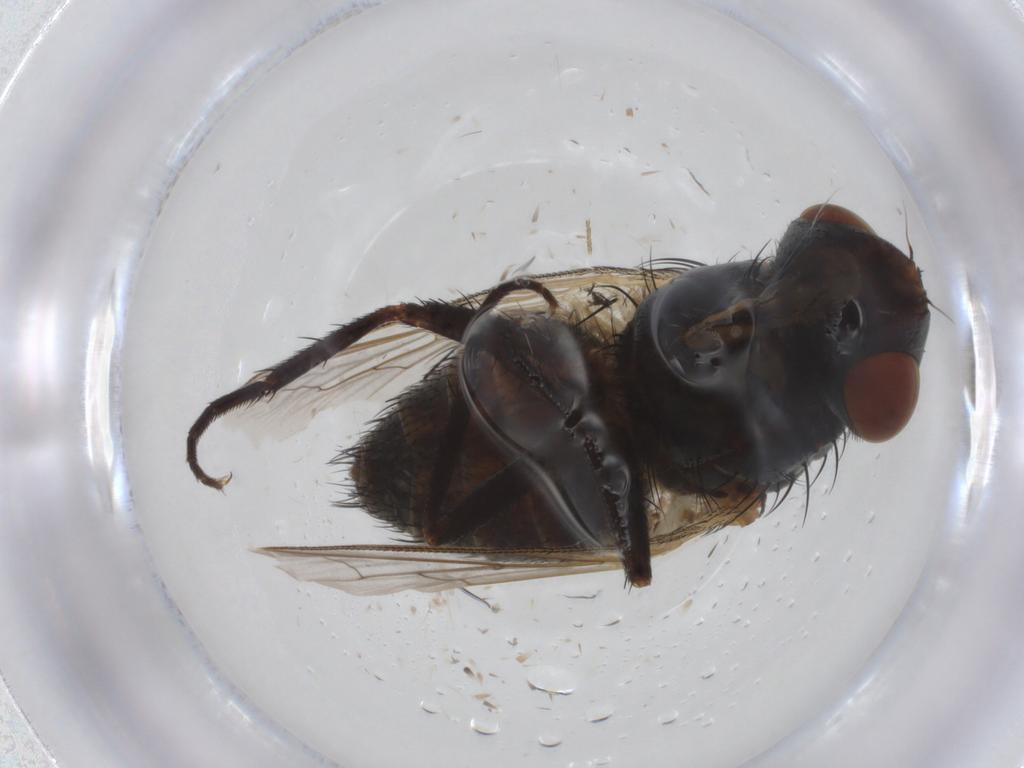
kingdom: Animalia
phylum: Arthropoda
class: Insecta
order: Diptera
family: Sarcophagidae
